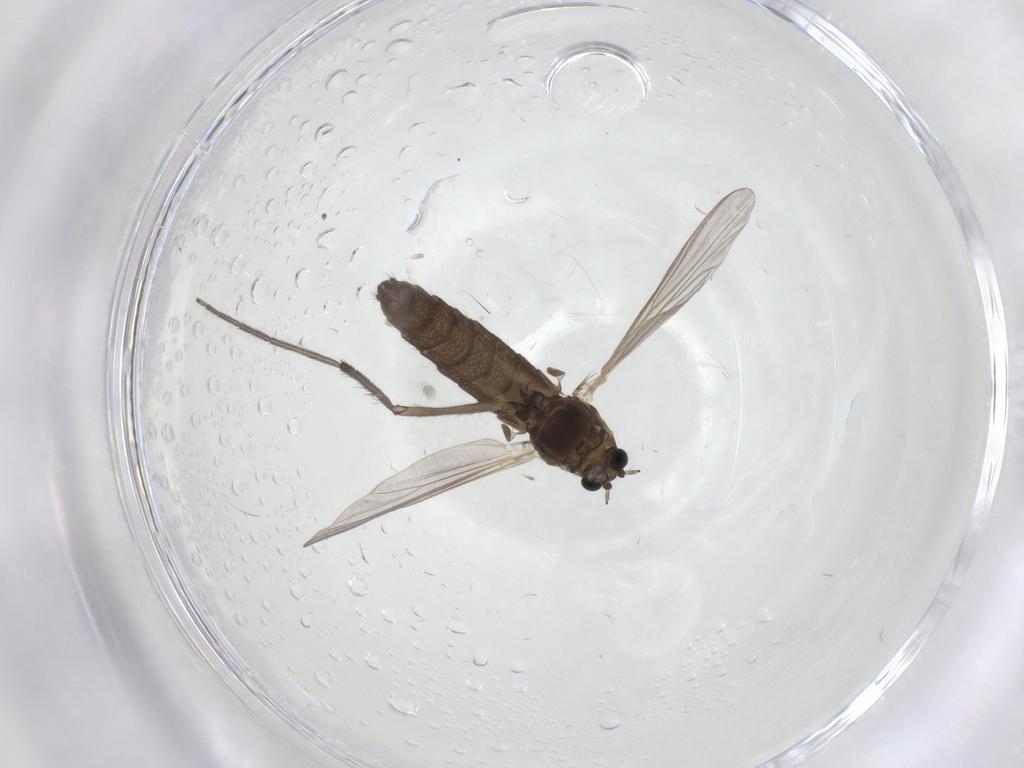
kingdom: Animalia
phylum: Arthropoda
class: Insecta
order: Diptera
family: Chironomidae
